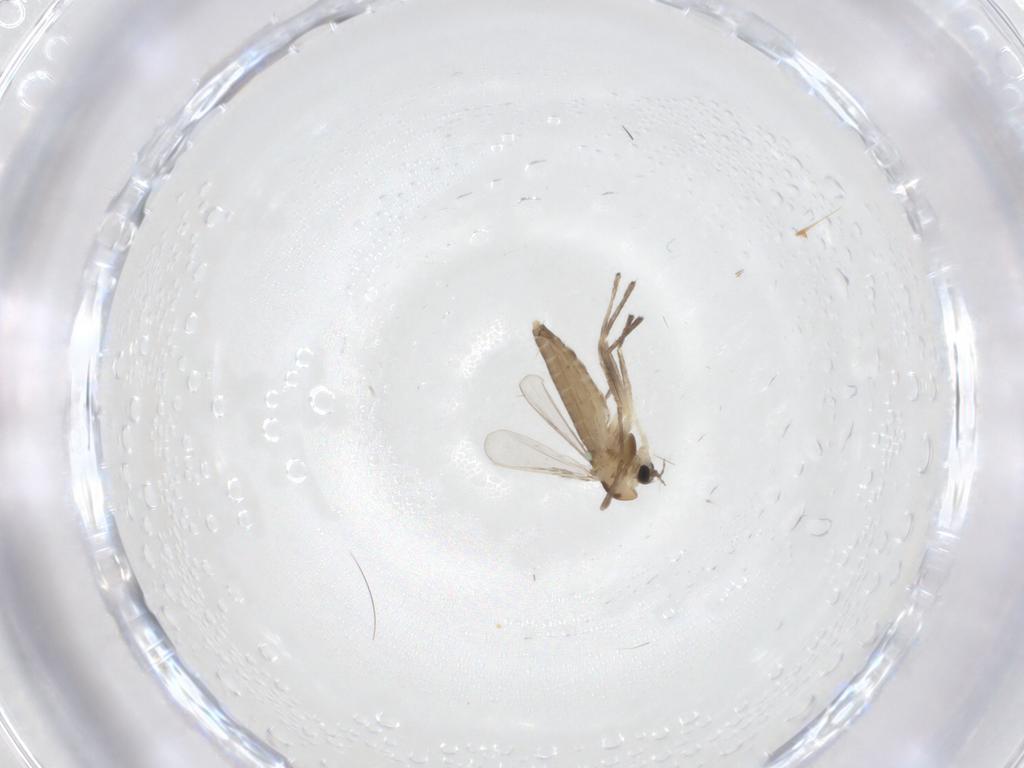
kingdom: Animalia
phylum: Arthropoda
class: Insecta
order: Diptera
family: Chironomidae
